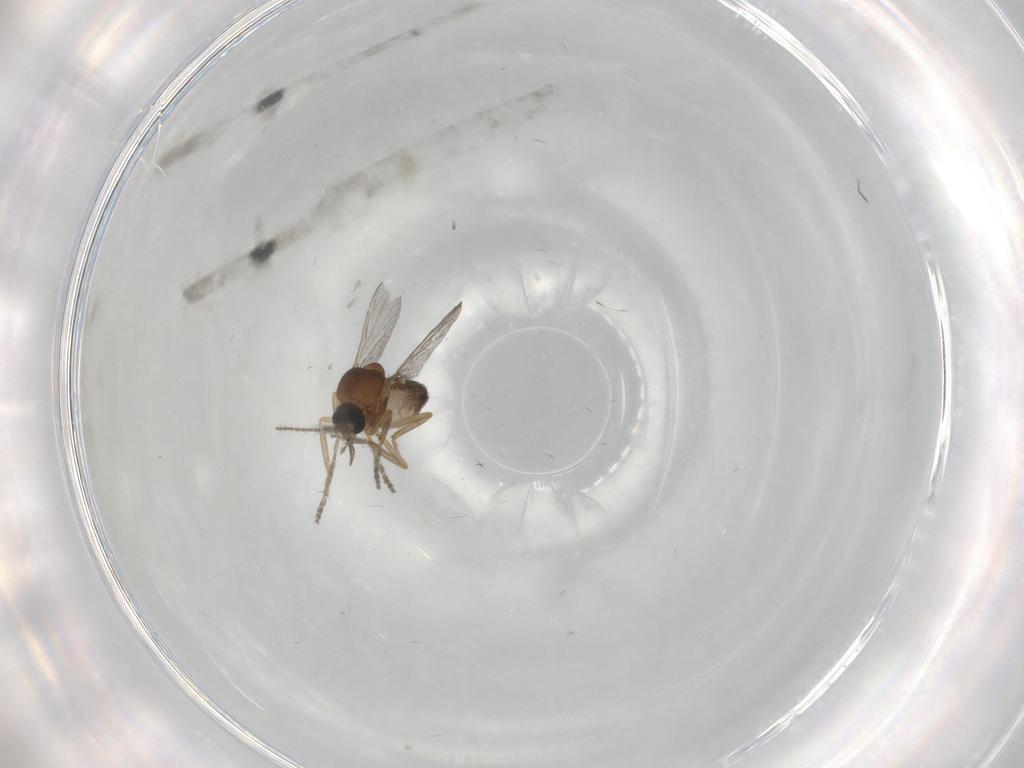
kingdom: Animalia
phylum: Arthropoda
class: Insecta
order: Diptera
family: Ceratopogonidae
